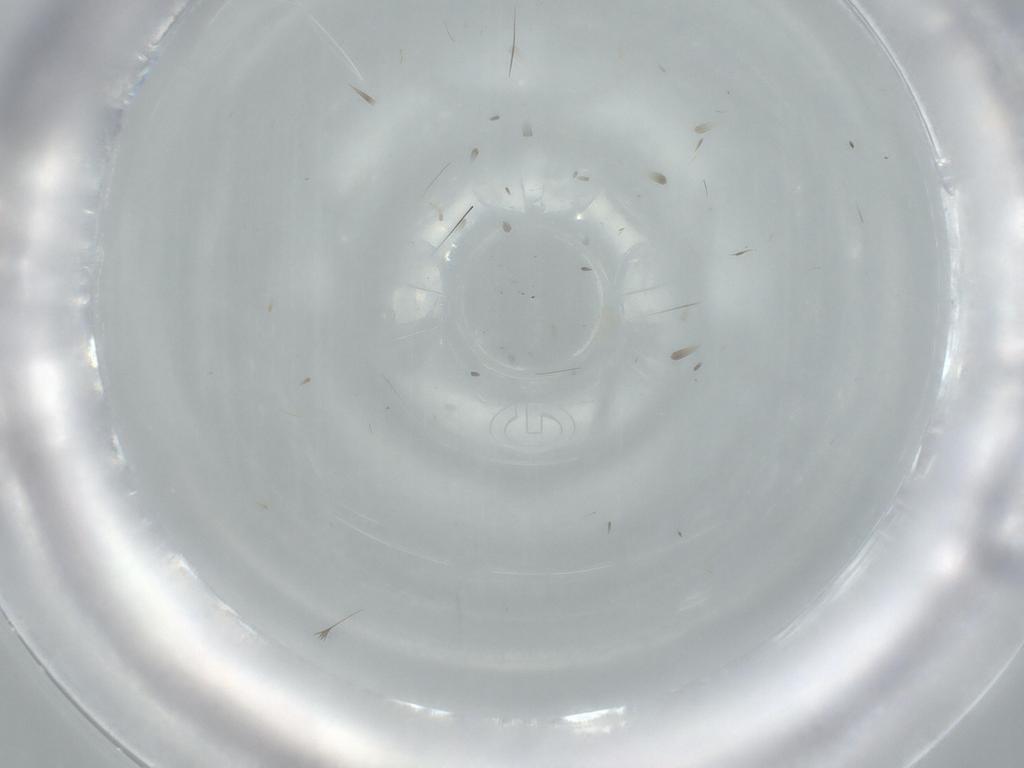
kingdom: Animalia
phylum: Arthropoda
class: Insecta
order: Diptera
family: Cecidomyiidae
